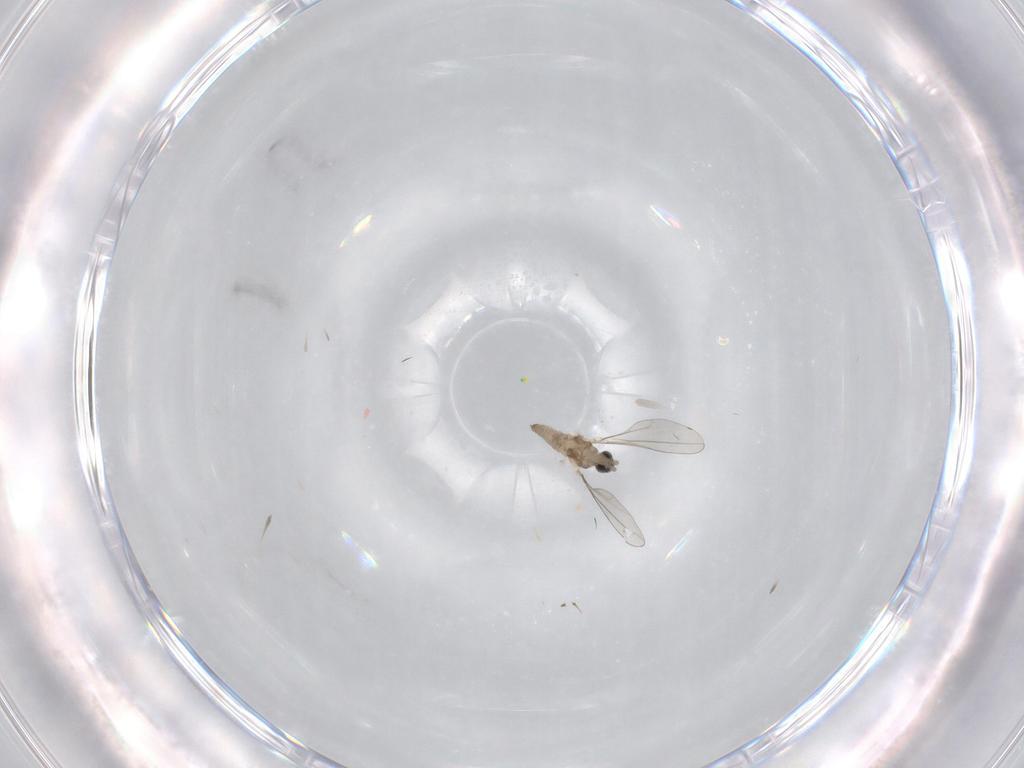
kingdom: Animalia
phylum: Arthropoda
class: Insecta
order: Diptera
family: Cecidomyiidae
